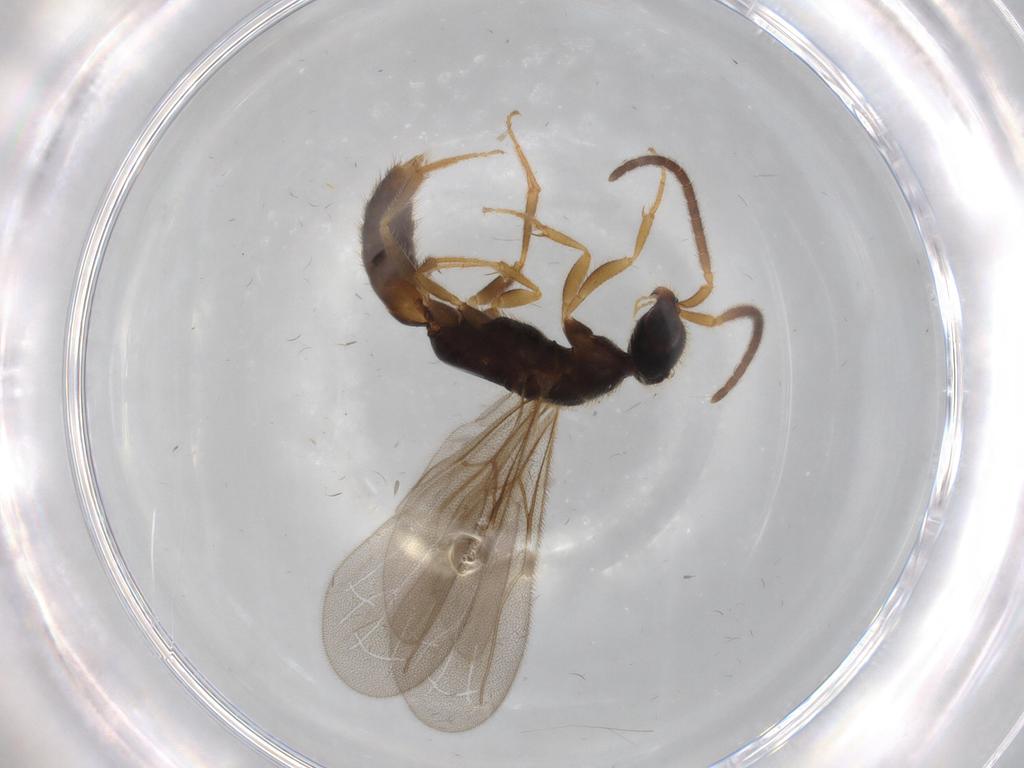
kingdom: Animalia
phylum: Arthropoda
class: Insecta
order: Hymenoptera
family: Bethylidae
